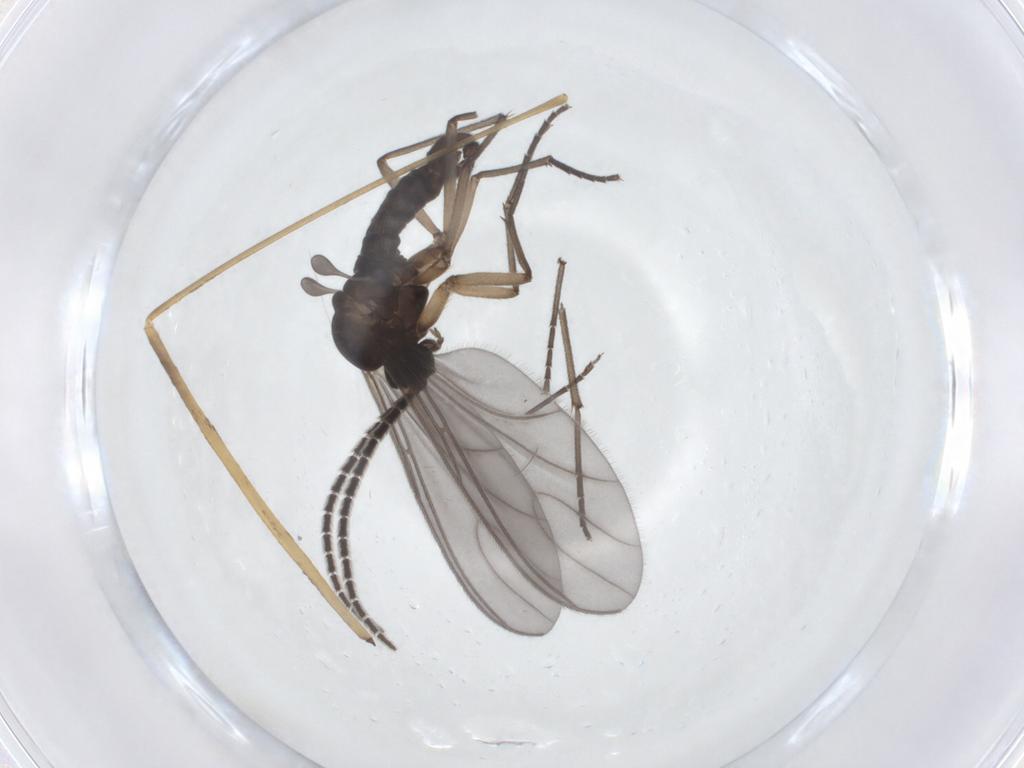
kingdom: Animalia
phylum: Arthropoda
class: Insecta
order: Diptera
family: Sciaridae
